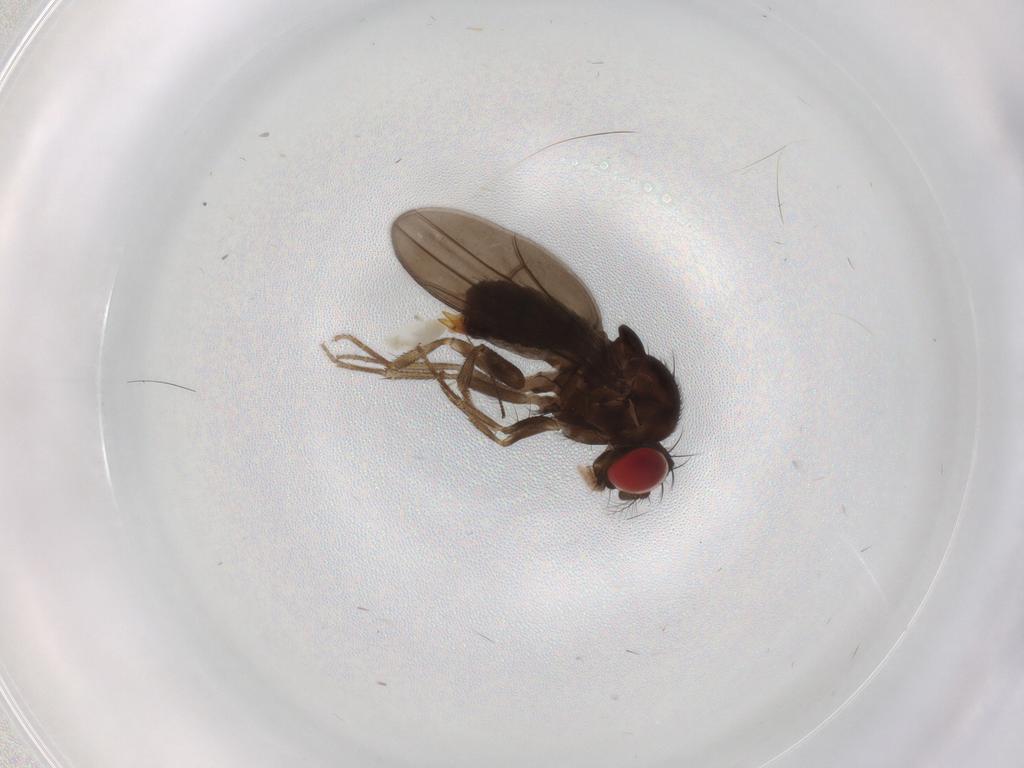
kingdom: Animalia
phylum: Arthropoda
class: Insecta
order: Diptera
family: Drosophilidae
